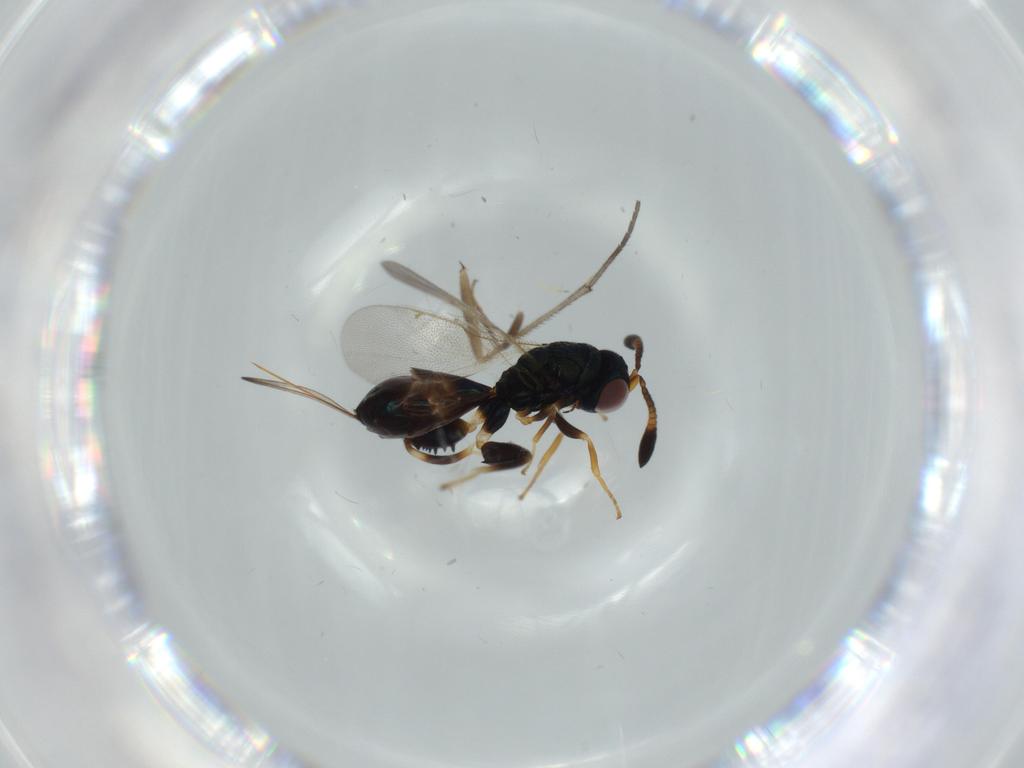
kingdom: Animalia
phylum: Arthropoda
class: Insecta
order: Hymenoptera
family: Torymidae
